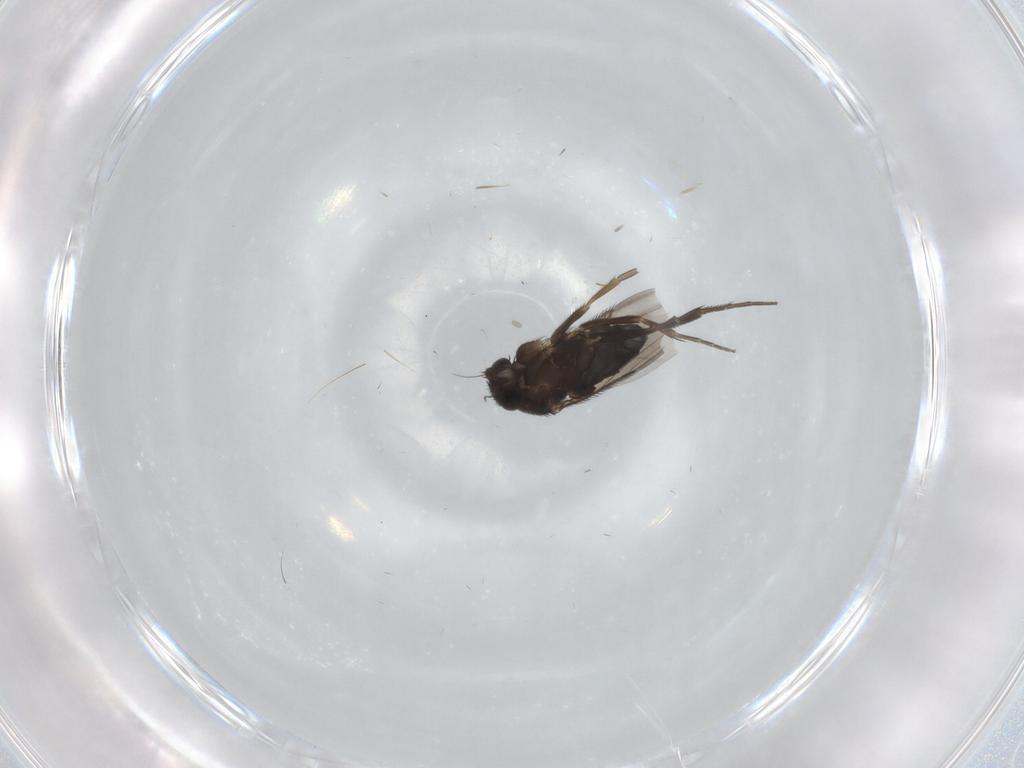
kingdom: Animalia
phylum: Arthropoda
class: Insecta
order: Diptera
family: Phoridae
